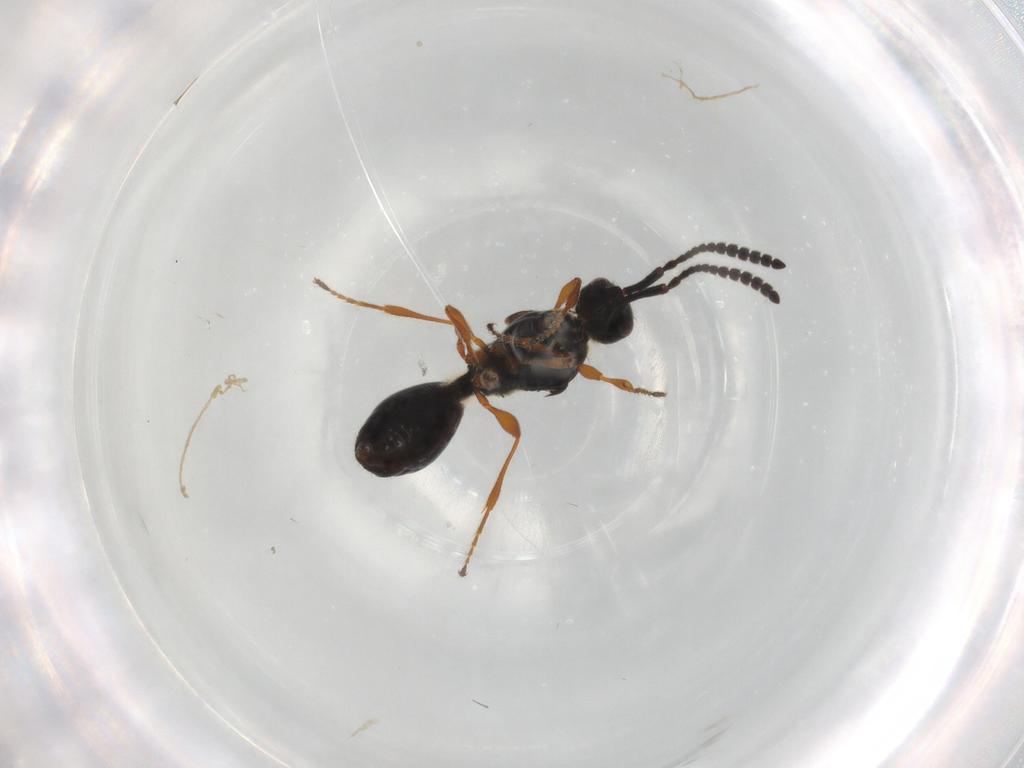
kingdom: Animalia
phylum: Arthropoda
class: Insecta
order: Hymenoptera
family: Diapriidae
